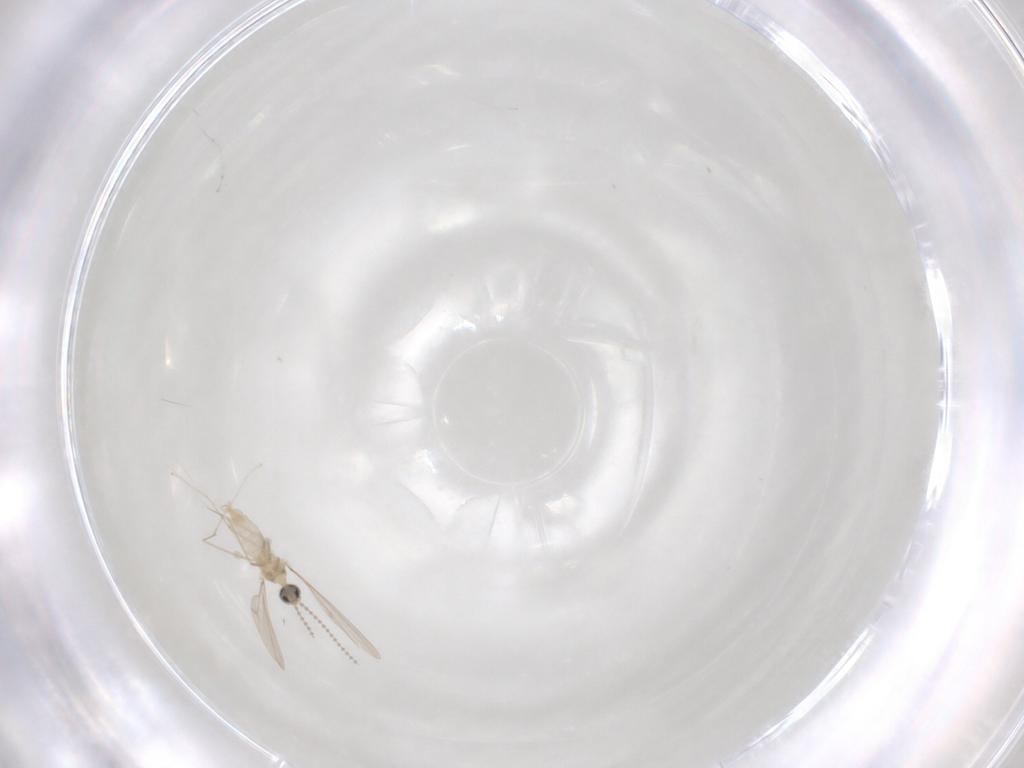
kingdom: Animalia
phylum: Arthropoda
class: Insecta
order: Diptera
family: Cecidomyiidae
